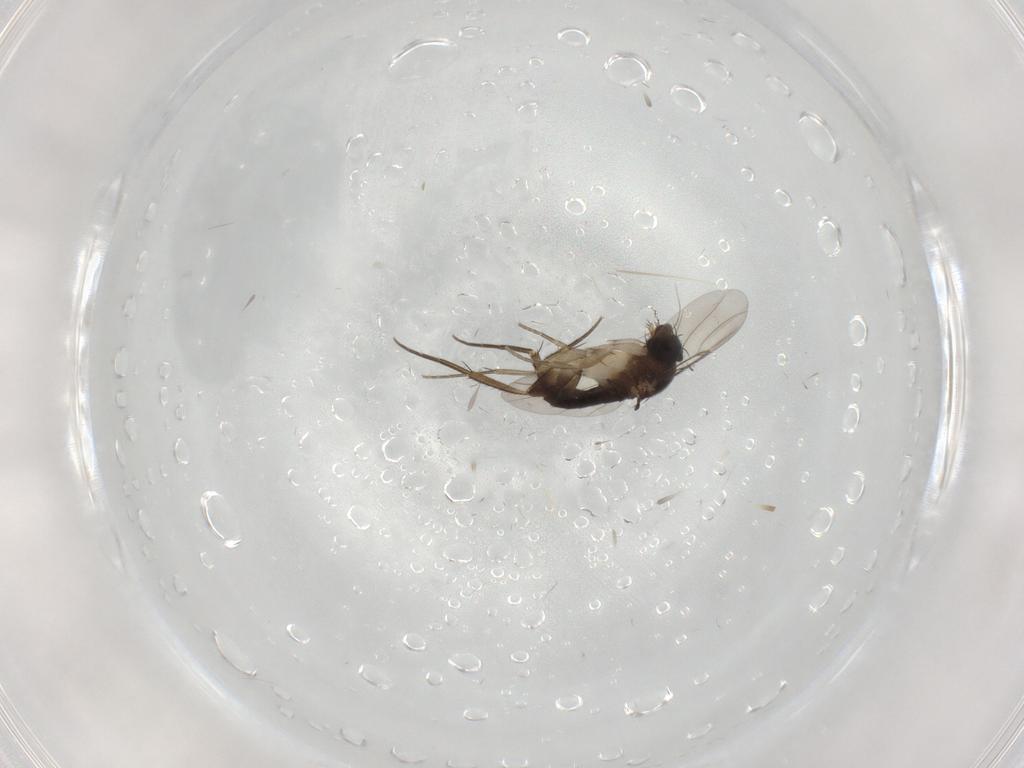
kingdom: Animalia
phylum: Arthropoda
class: Insecta
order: Diptera
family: Phoridae
